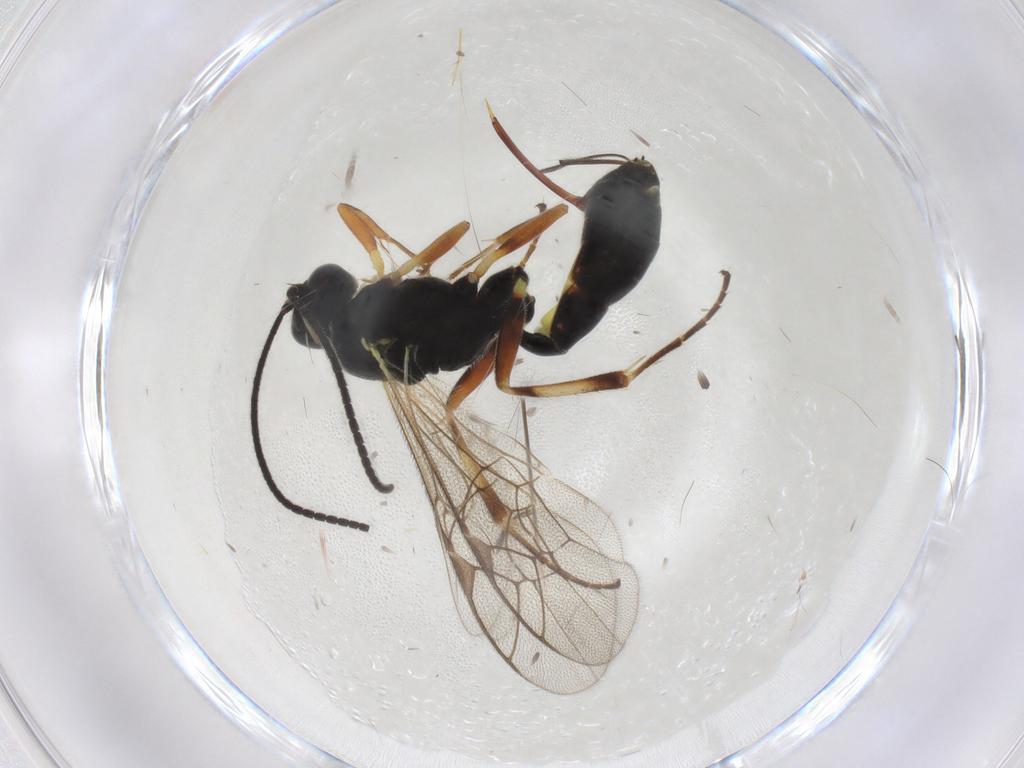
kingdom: Animalia
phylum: Arthropoda
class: Insecta
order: Hymenoptera
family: Ichneumonidae
